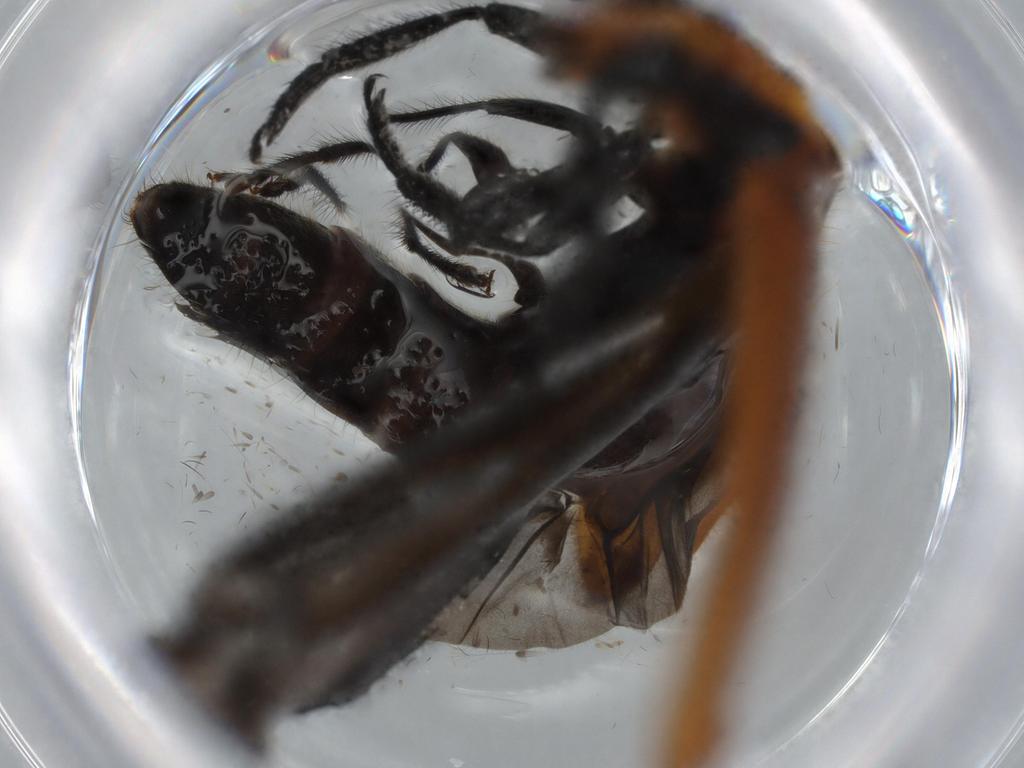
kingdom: Animalia
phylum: Arthropoda
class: Insecta
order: Coleoptera
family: Cleridae
